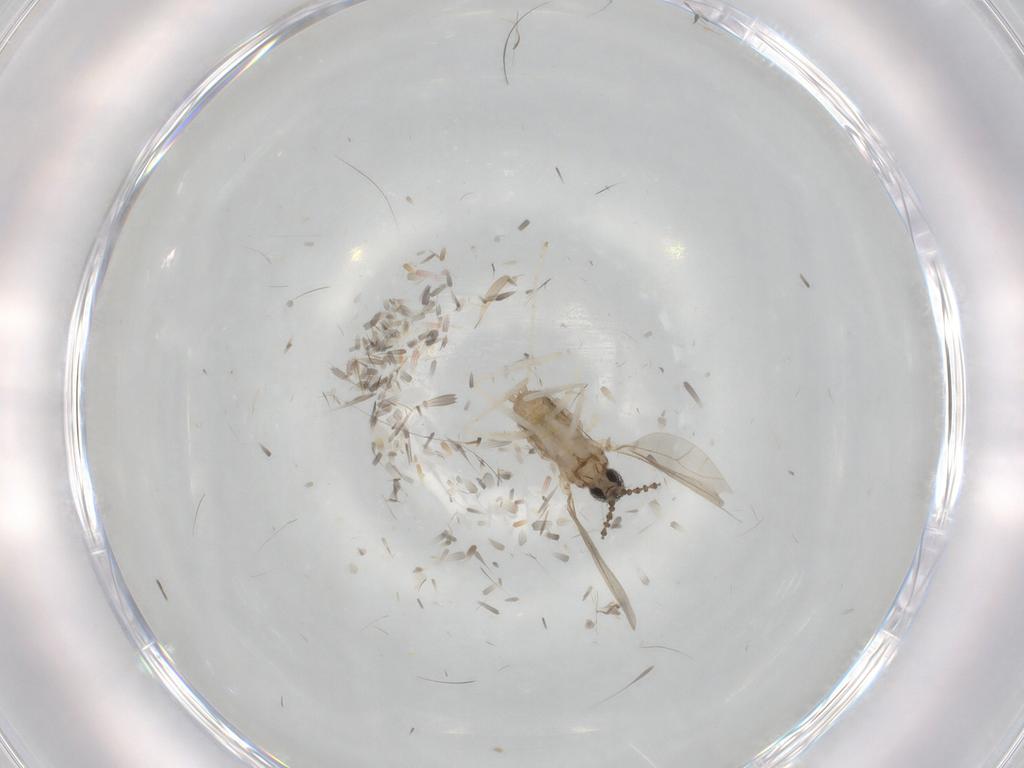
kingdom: Animalia
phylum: Arthropoda
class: Insecta
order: Diptera
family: Cecidomyiidae
